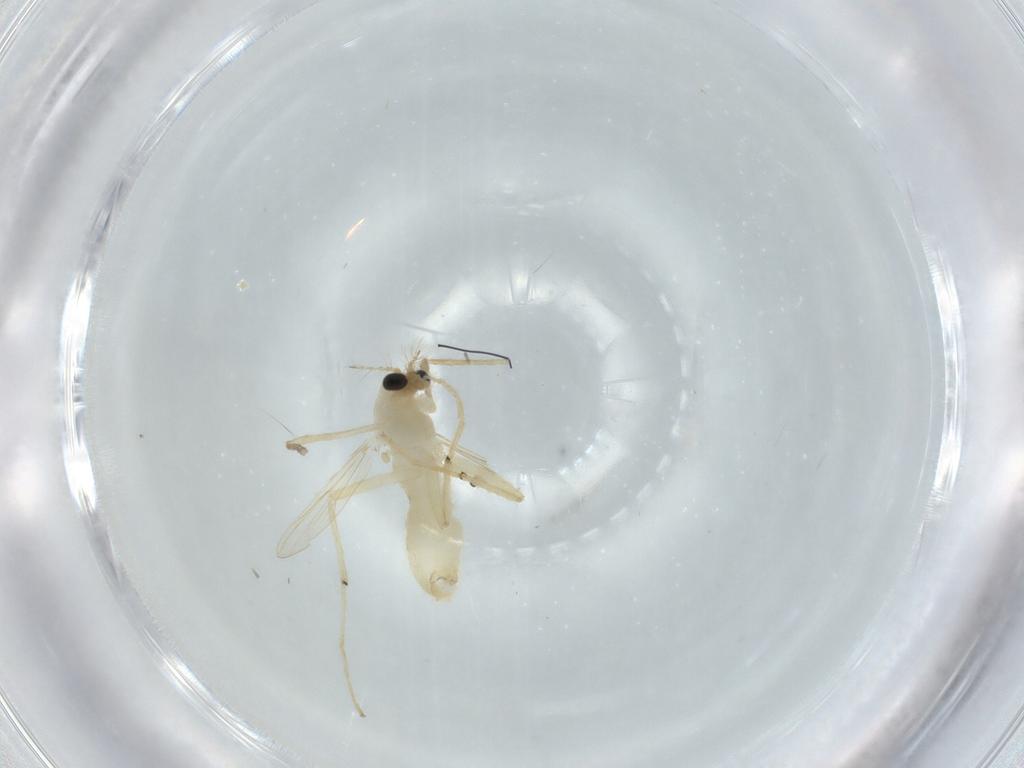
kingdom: Animalia
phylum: Arthropoda
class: Insecta
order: Diptera
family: Chironomidae
